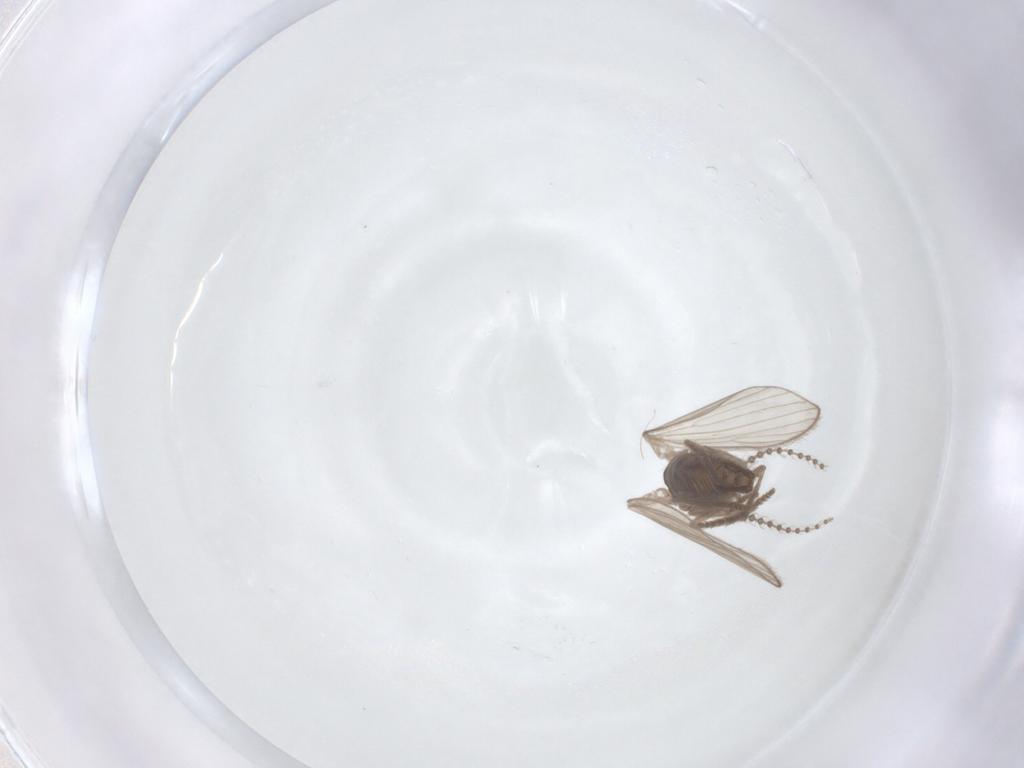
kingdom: Animalia
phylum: Arthropoda
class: Insecta
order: Diptera
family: Psychodidae
